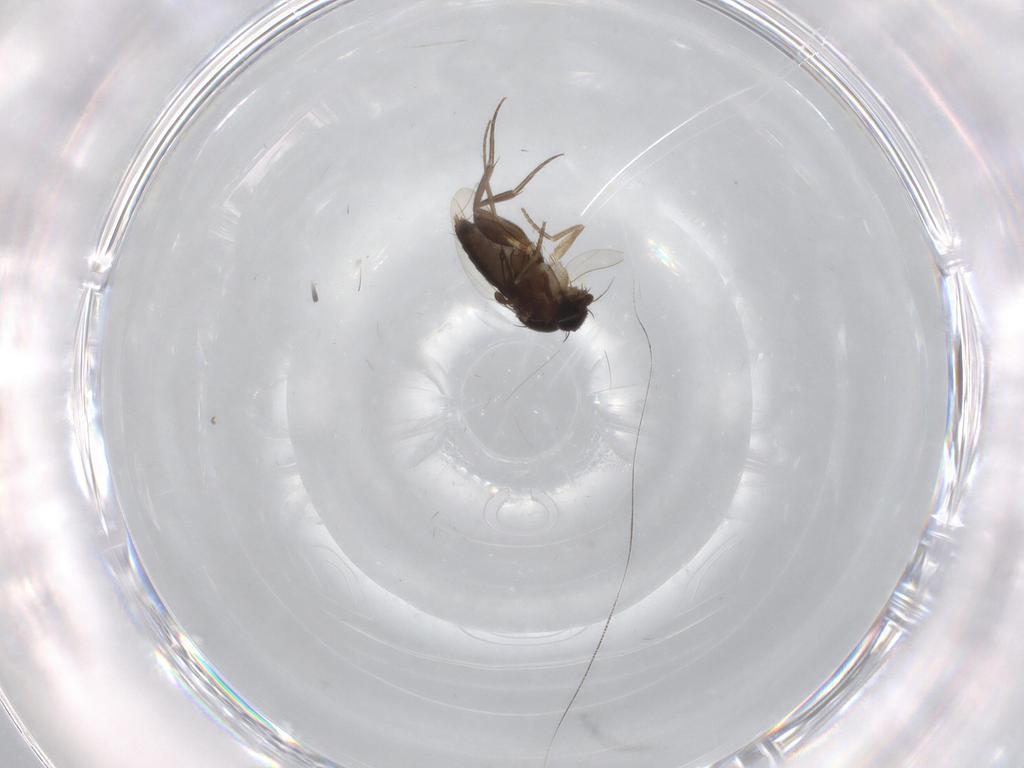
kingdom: Animalia
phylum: Arthropoda
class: Insecta
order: Diptera
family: Phoridae
